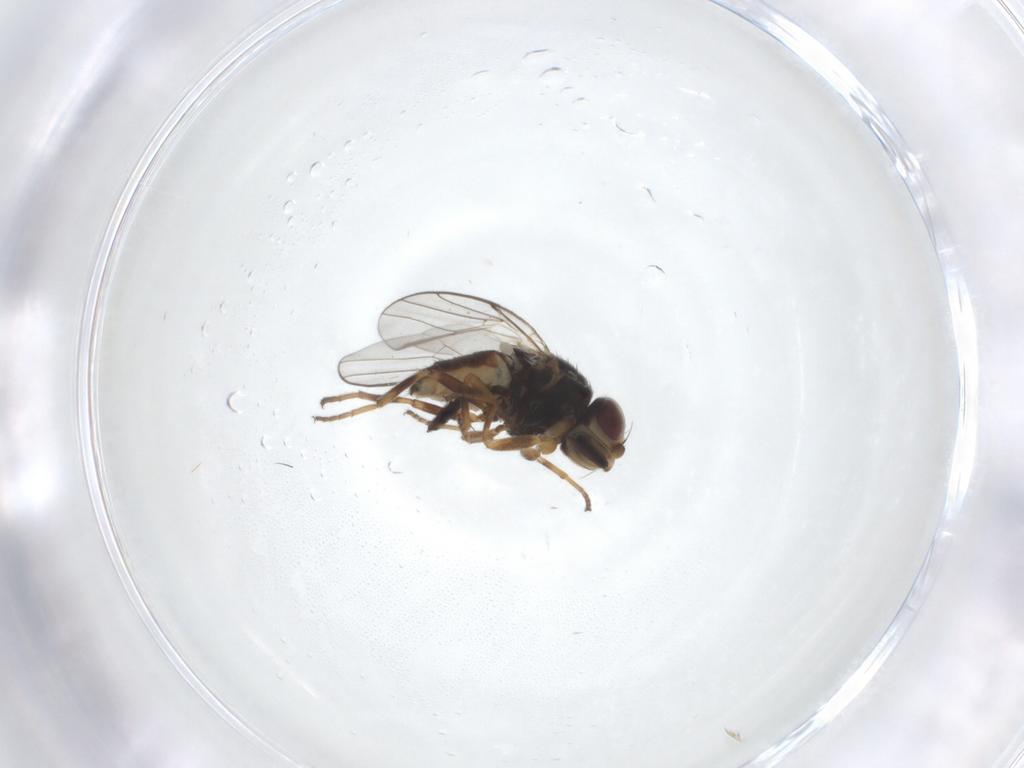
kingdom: Animalia
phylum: Arthropoda
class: Insecta
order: Diptera
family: Chloropidae
